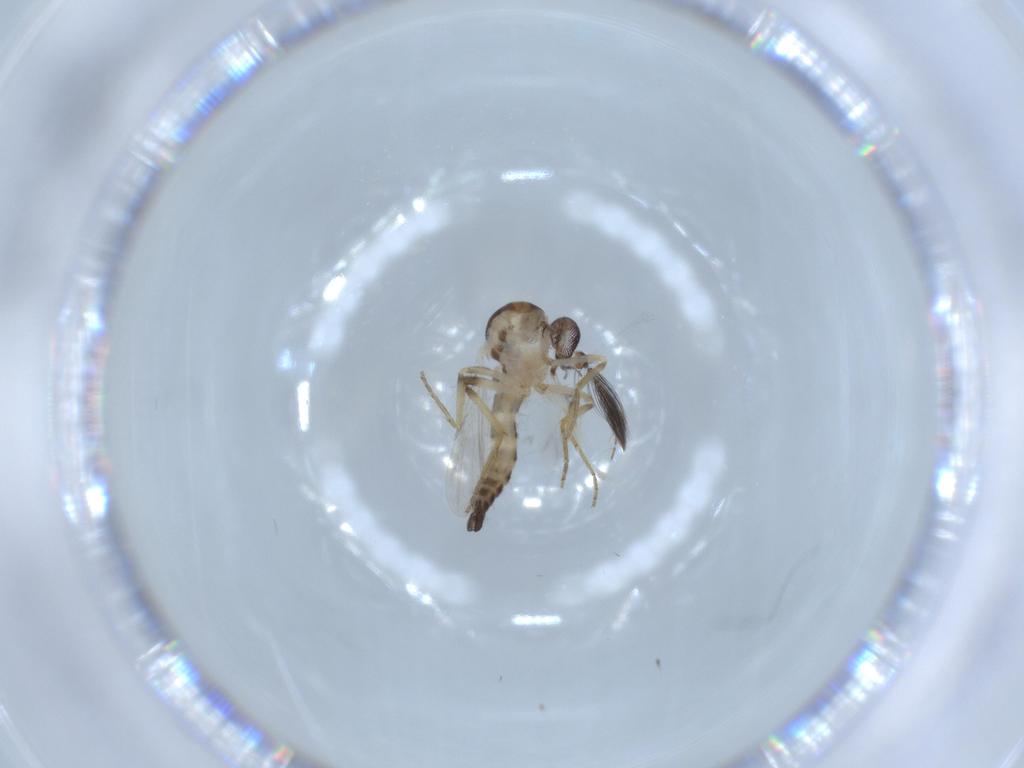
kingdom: Animalia
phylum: Arthropoda
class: Insecta
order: Diptera
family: Ceratopogonidae
